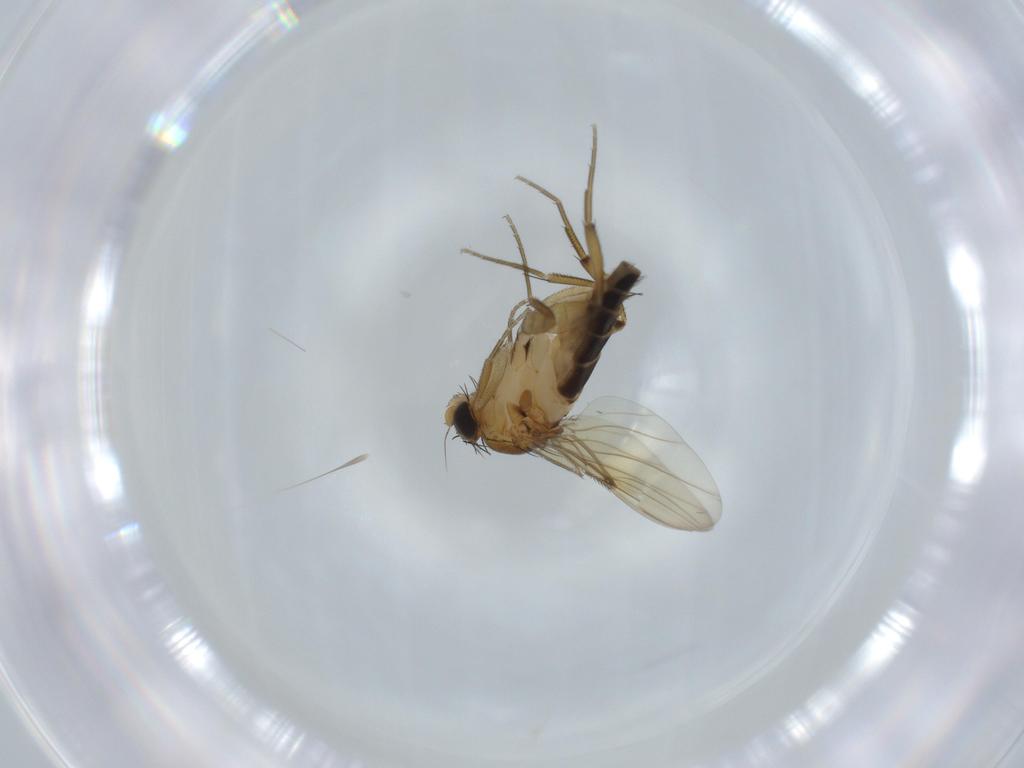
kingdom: Animalia
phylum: Arthropoda
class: Insecta
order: Diptera
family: Phoridae
